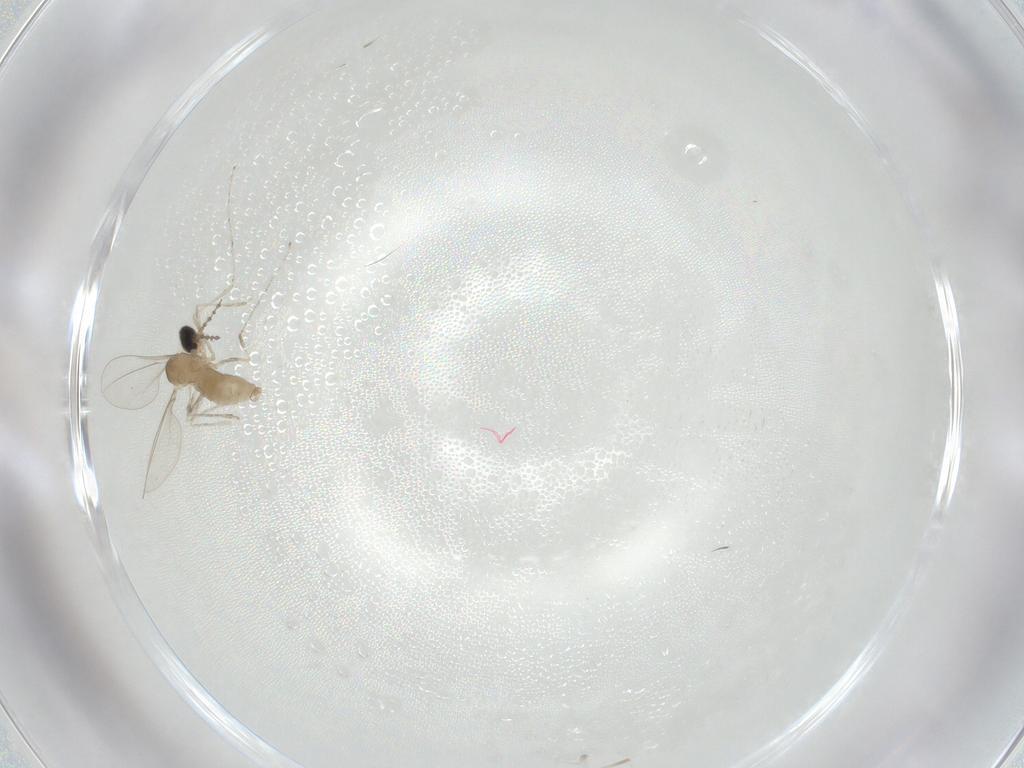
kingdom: Animalia
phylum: Arthropoda
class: Insecta
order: Diptera
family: Cecidomyiidae
